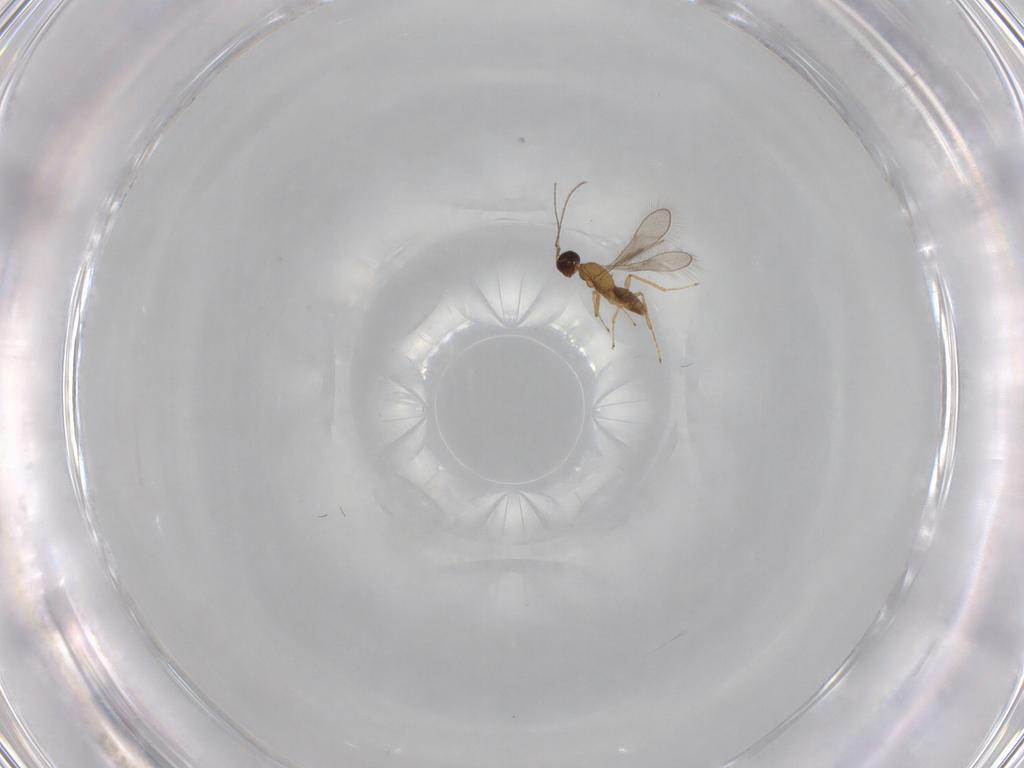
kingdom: Animalia
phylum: Arthropoda
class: Insecta
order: Hymenoptera
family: Mymaridae
